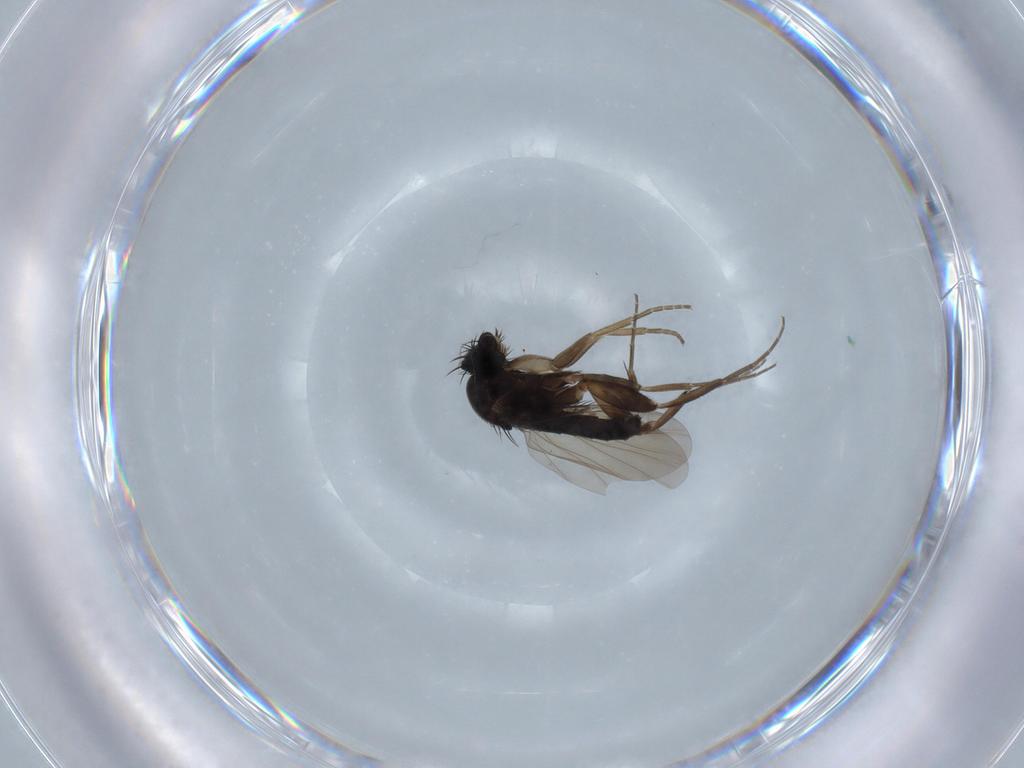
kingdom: Animalia
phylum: Arthropoda
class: Insecta
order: Diptera
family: Phoridae
